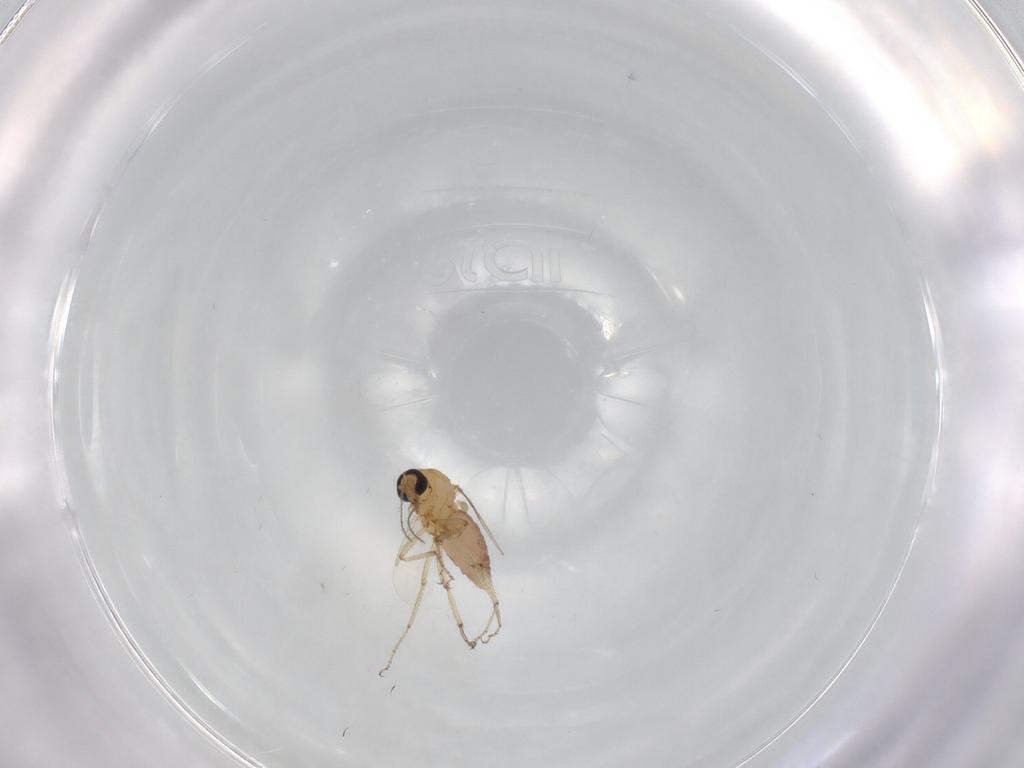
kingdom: Animalia
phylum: Arthropoda
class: Insecta
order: Diptera
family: Ceratopogonidae
